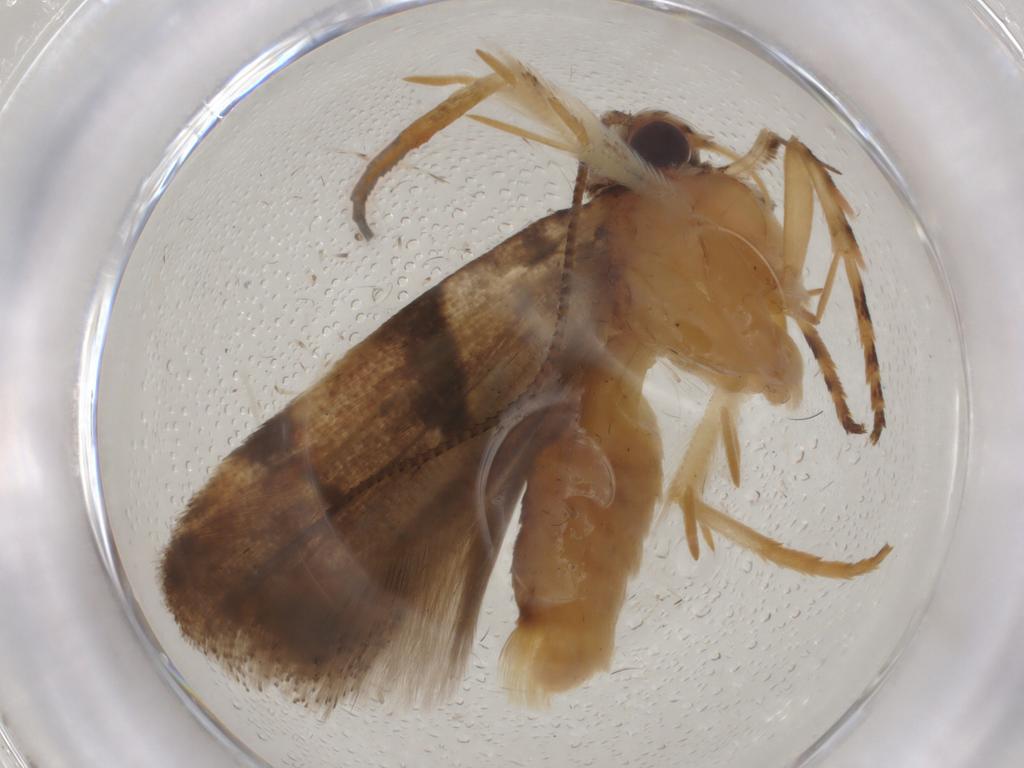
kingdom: Animalia
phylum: Arthropoda
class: Insecta
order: Lepidoptera
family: Gelechiidae
